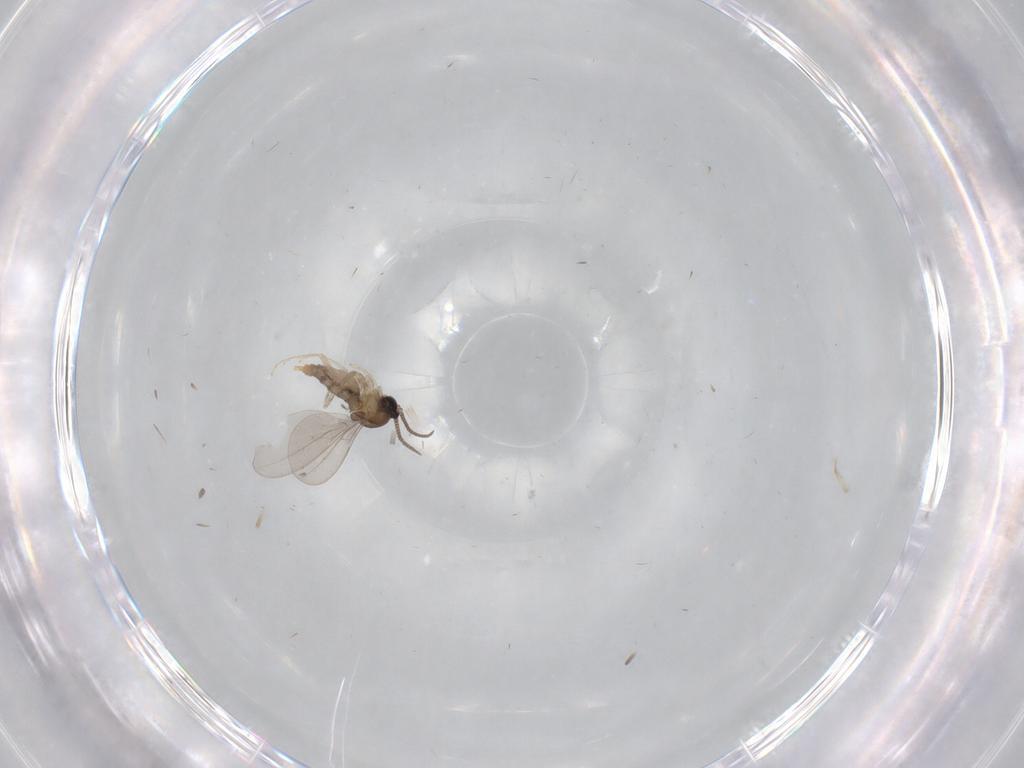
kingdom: Animalia
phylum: Arthropoda
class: Insecta
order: Diptera
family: Cecidomyiidae
